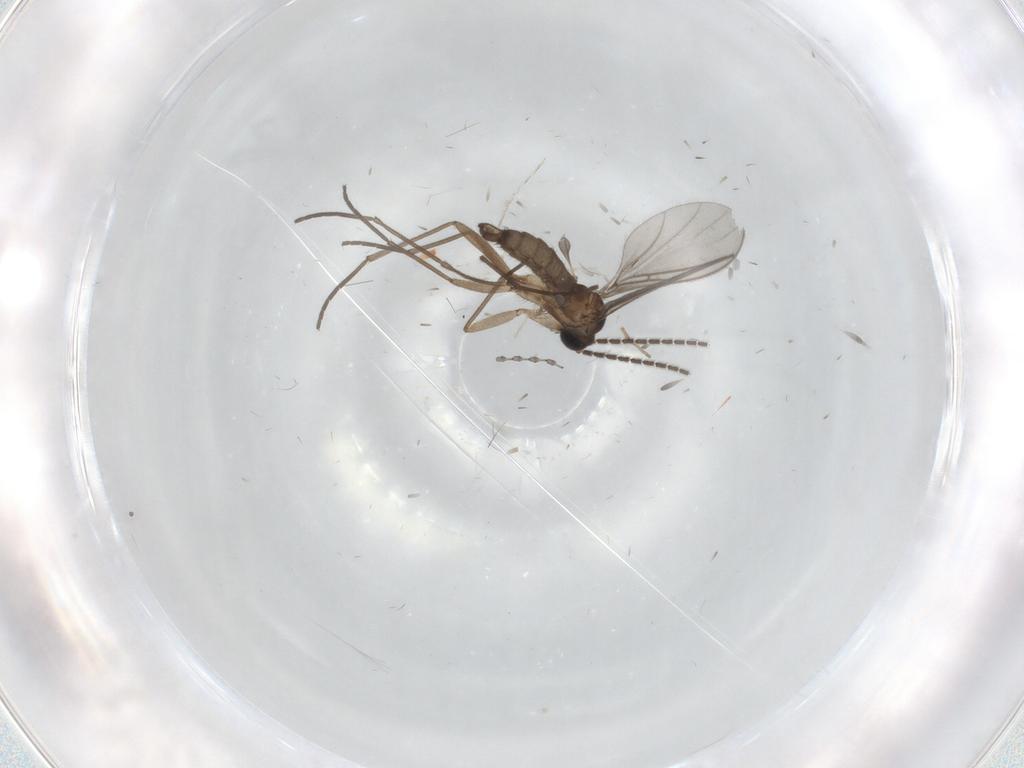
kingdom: Animalia
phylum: Arthropoda
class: Insecta
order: Diptera
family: Sciaridae
